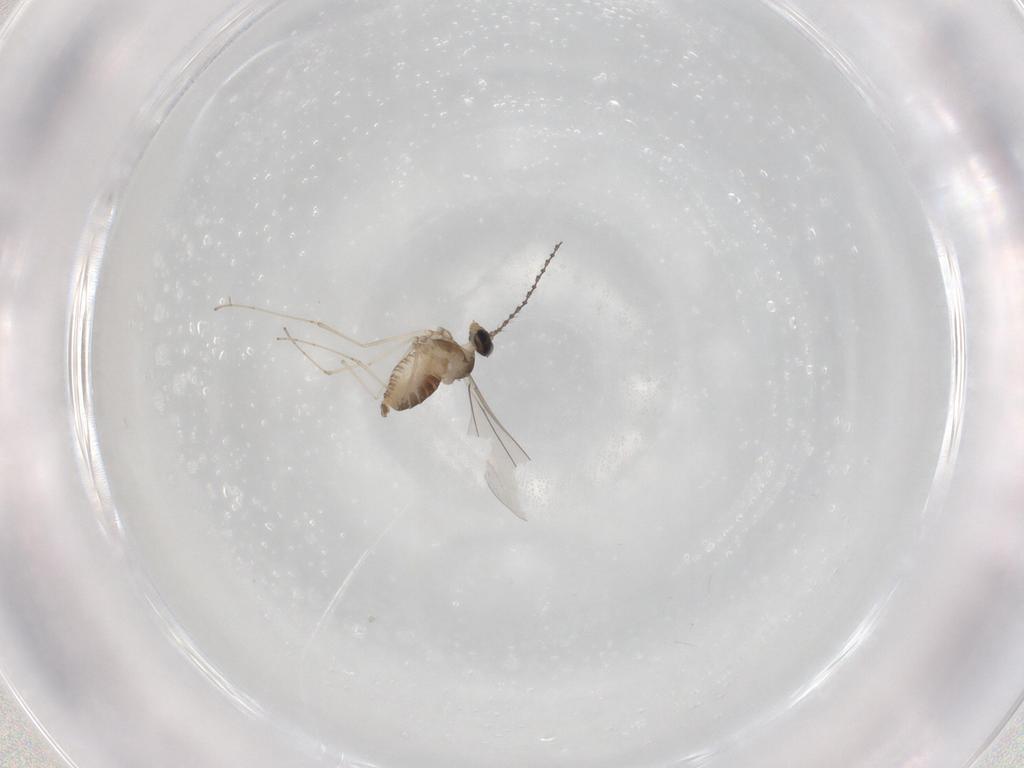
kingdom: Animalia
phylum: Arthropoda
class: Insecta
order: Diptera
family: Cecidomyiidae
